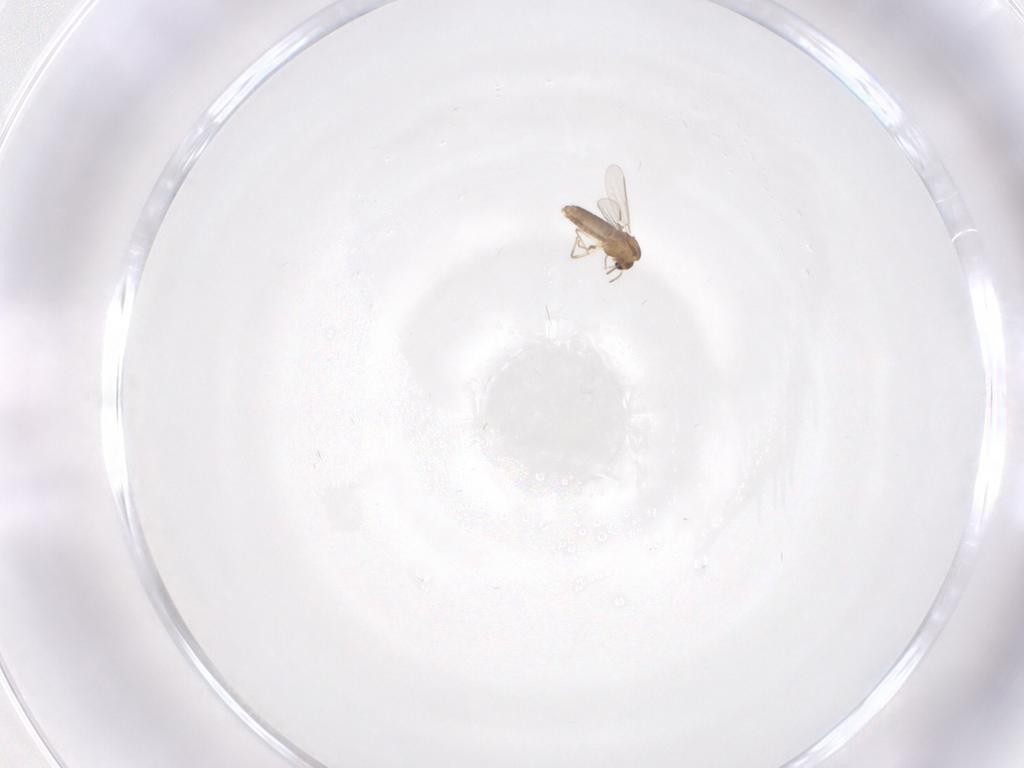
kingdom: Animalia
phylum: Arthropoda
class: Insecta
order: Diptera
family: Chironomidae
